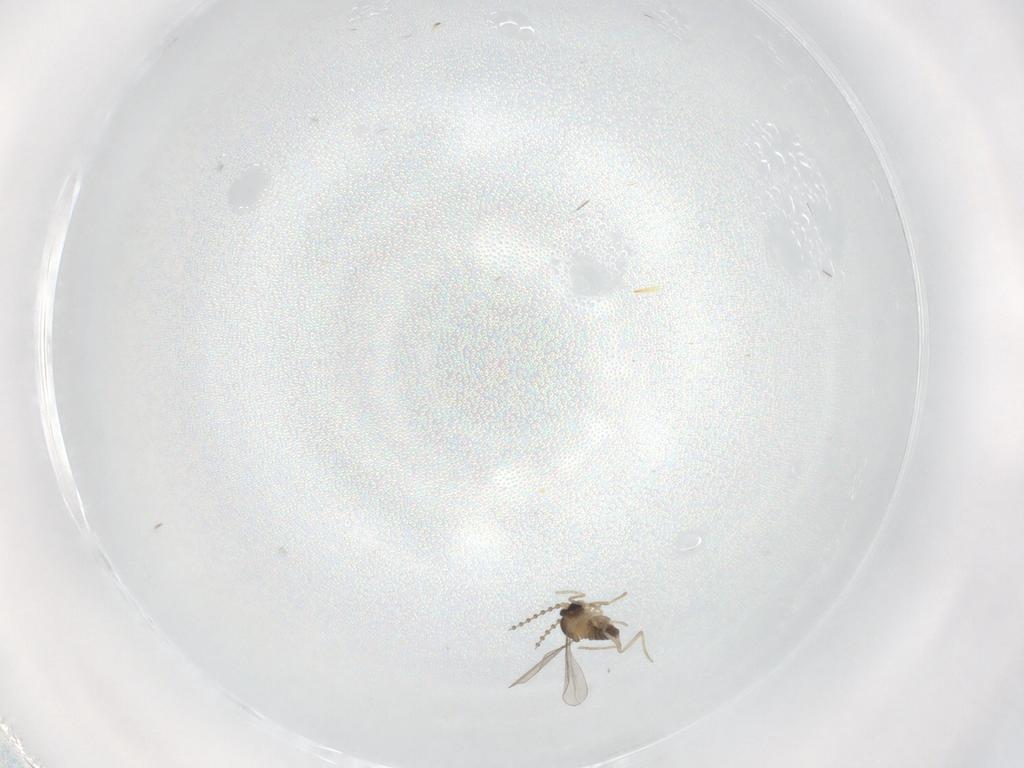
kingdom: Animalia
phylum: Arthropoda
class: Insecta
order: Diptera
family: Cecidomyiidae
